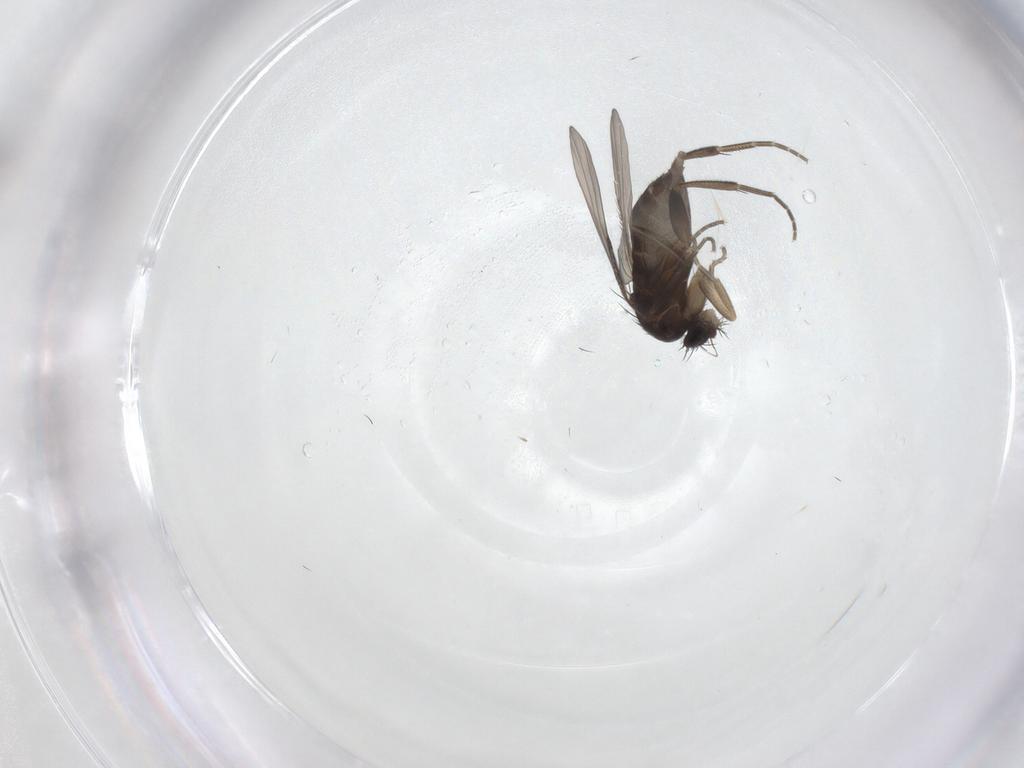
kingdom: Animalia
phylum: Arthropoda
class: Insecta
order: Diptera
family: Phoridae
